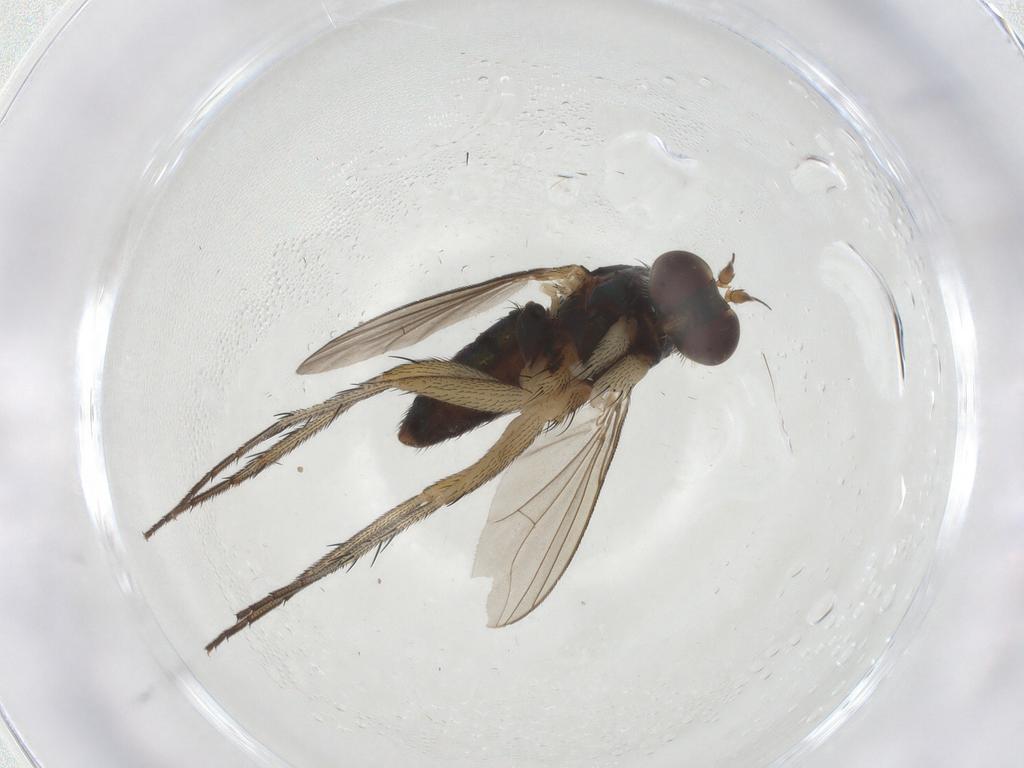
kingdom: Animalia
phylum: Arthropoda
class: Insecta
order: Diptera
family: Dolichopodidae
